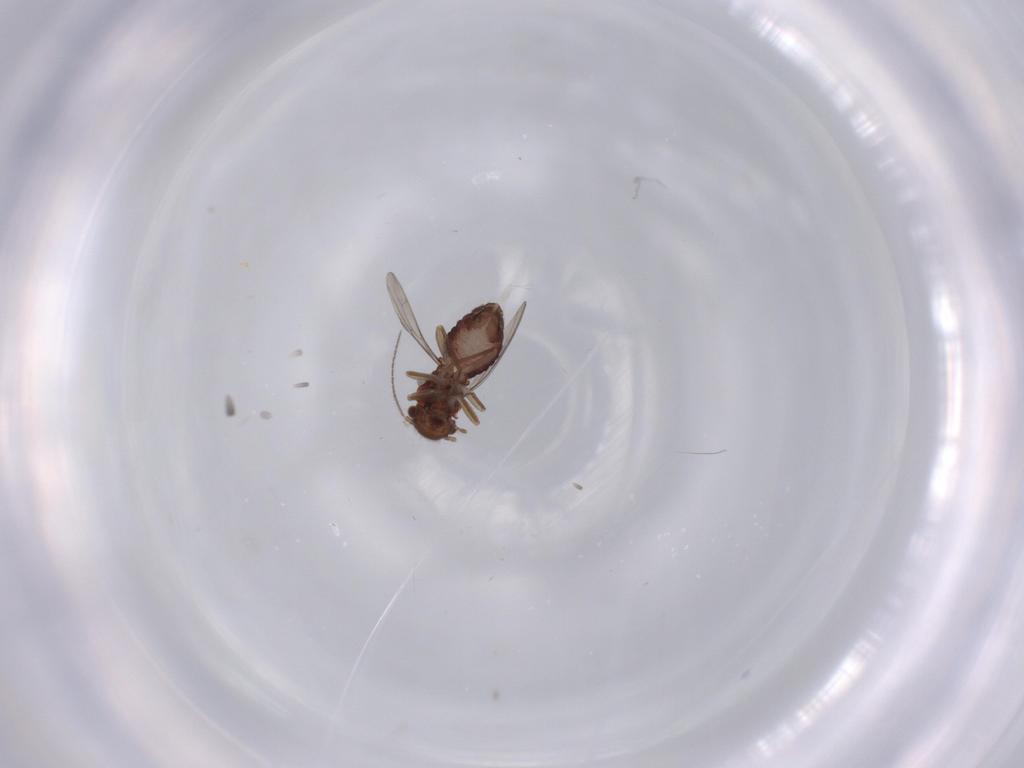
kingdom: Animalia
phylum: Arthropoda
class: Insecta
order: Psocodea
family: Ectopsocidae
